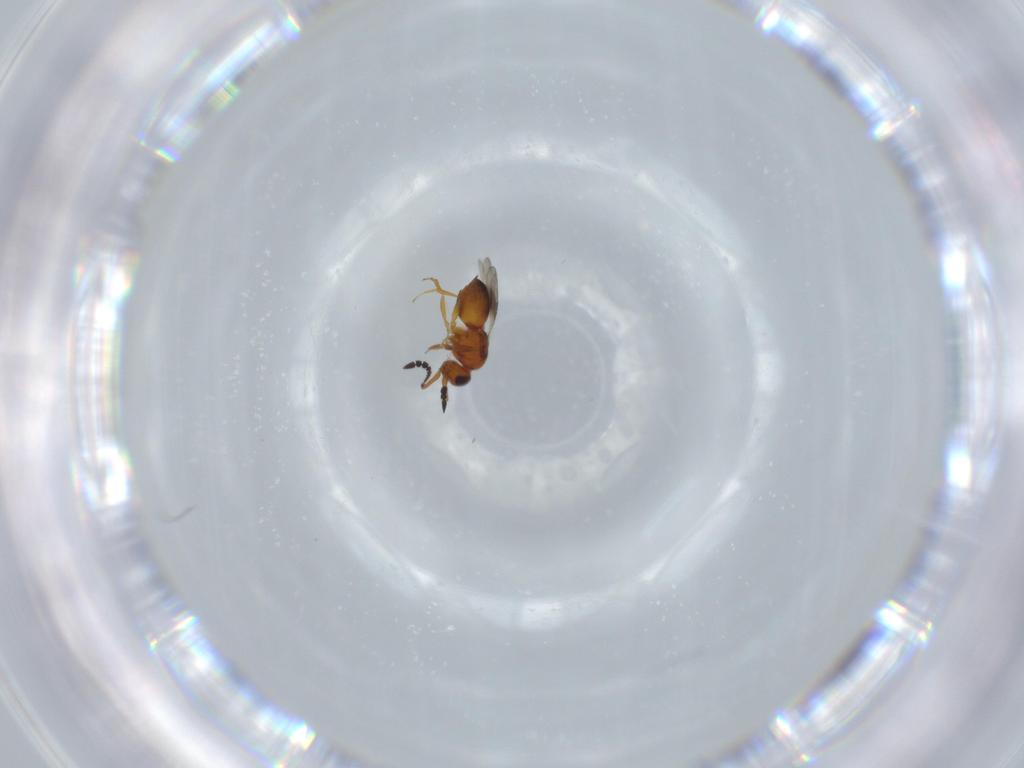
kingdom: Animalia
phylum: Arthropoda
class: Insecta
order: Hymenoptera
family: Ceraphronidae
